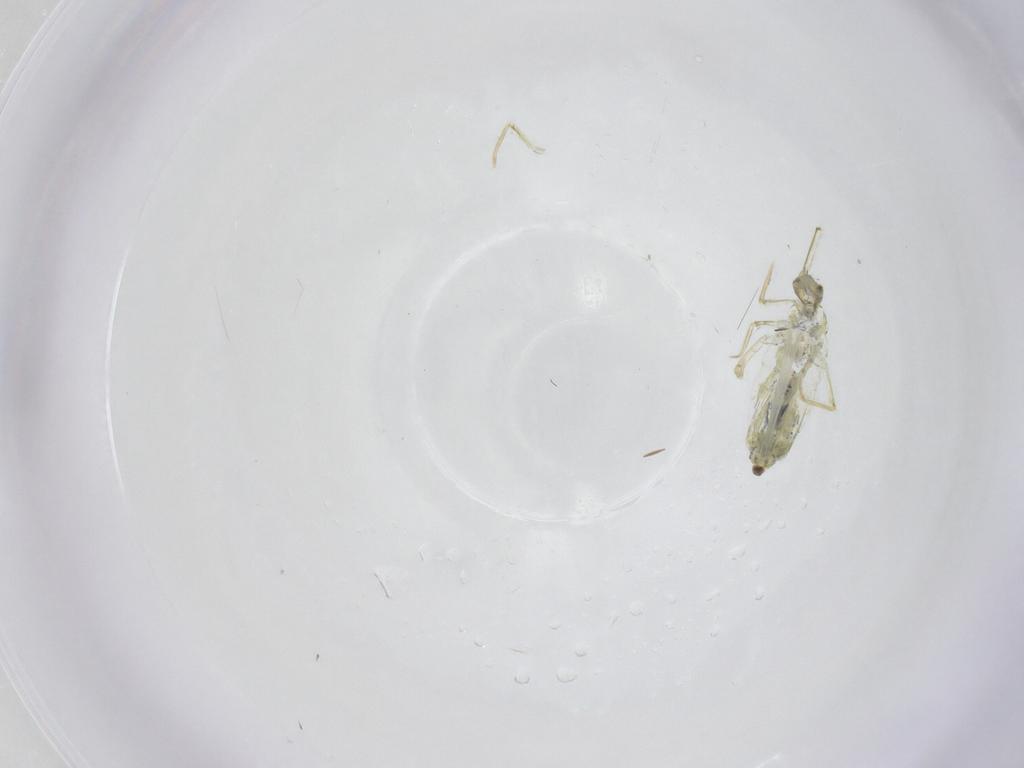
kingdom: Animalia
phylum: Arthropoda
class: Collembola
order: Entomobryomorpha
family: Paronellidae
